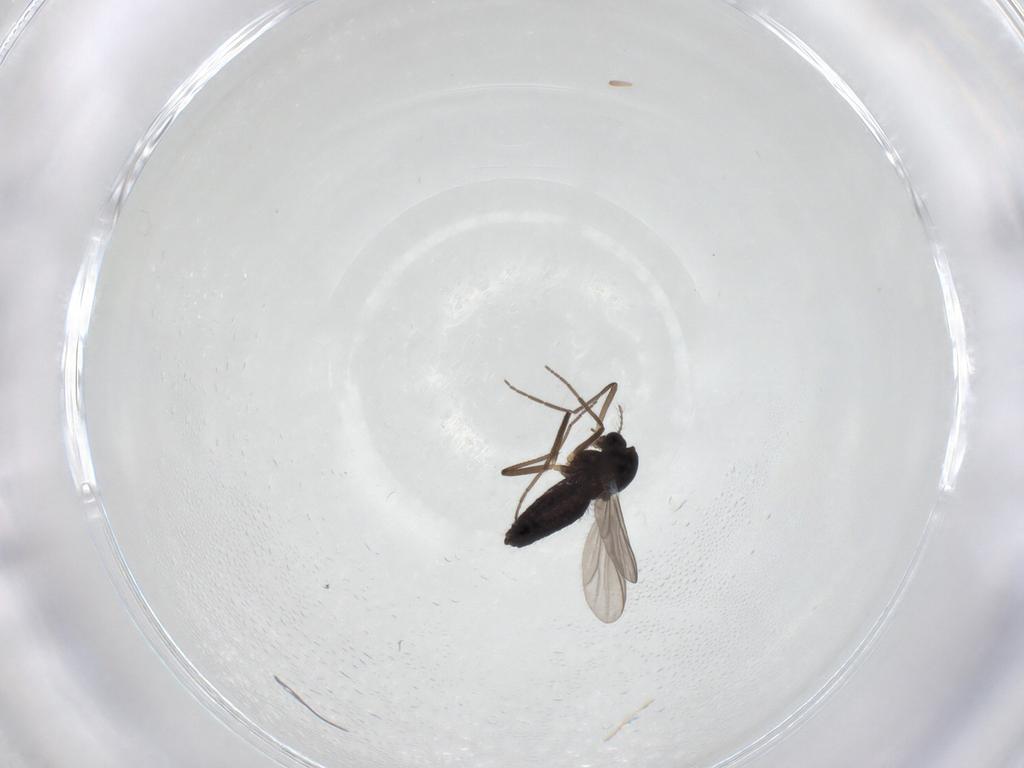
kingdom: Animalia
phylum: Arthropoda
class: Insecta
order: Diptera
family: Chironomidae
